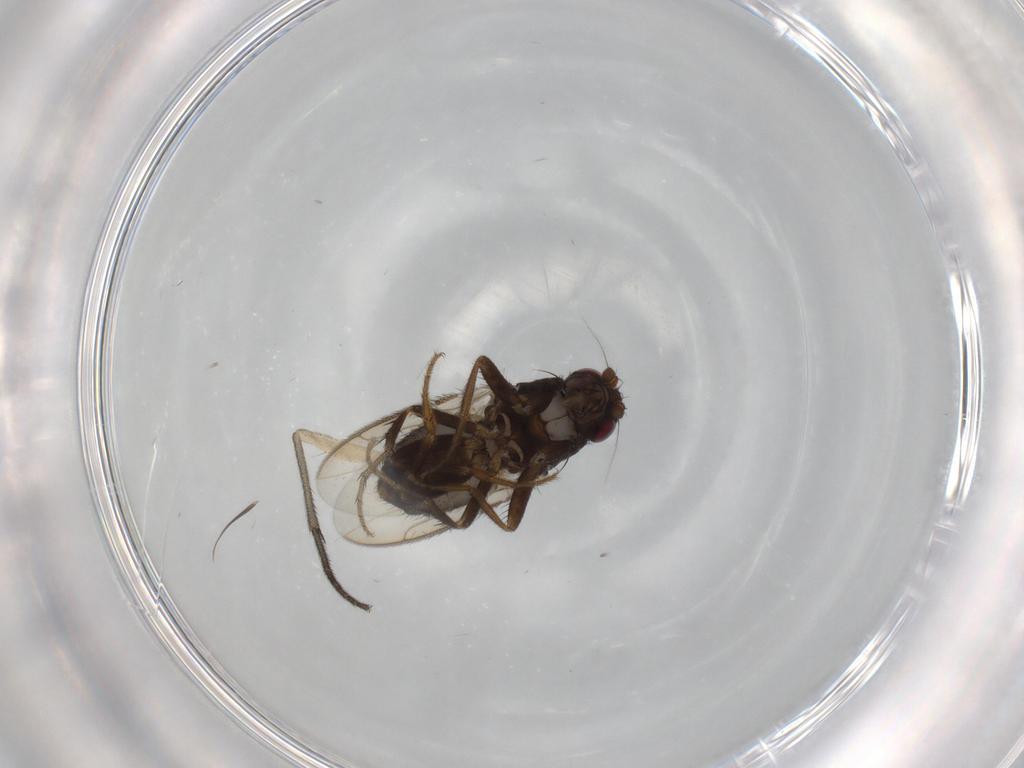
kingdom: Animalia
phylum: Arthropoda
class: Insecta
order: Diptera
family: Sphaeroceridae
